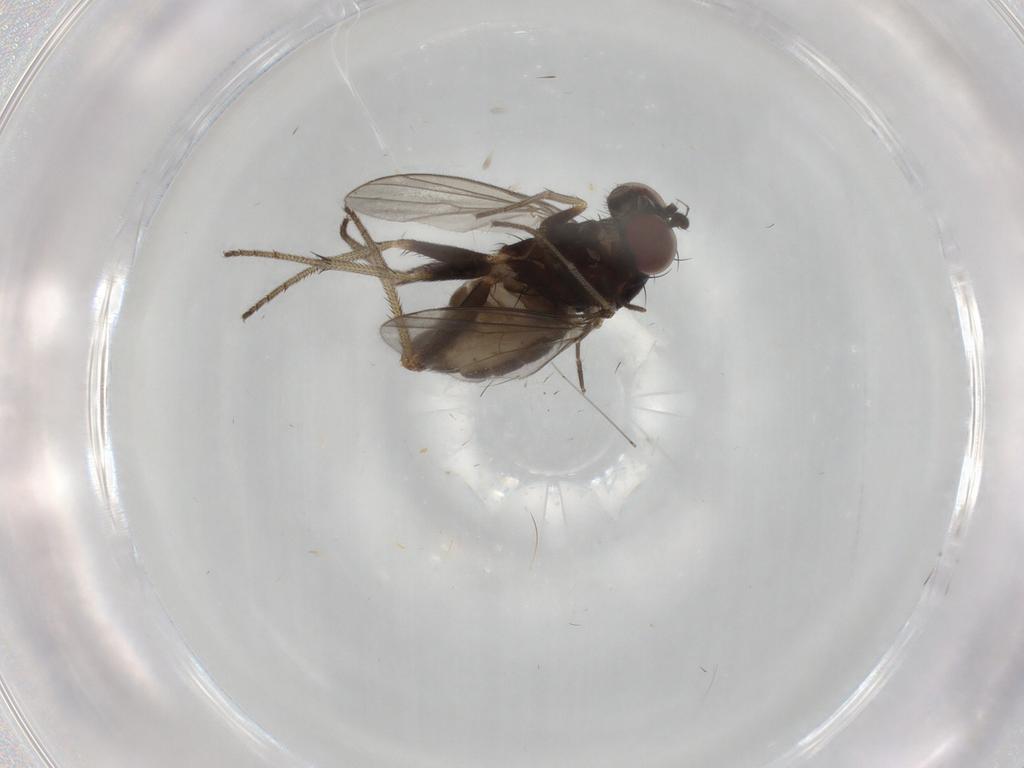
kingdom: Animalia
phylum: Arthropoda
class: Insecta
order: Diptera
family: Dolichopodidae
